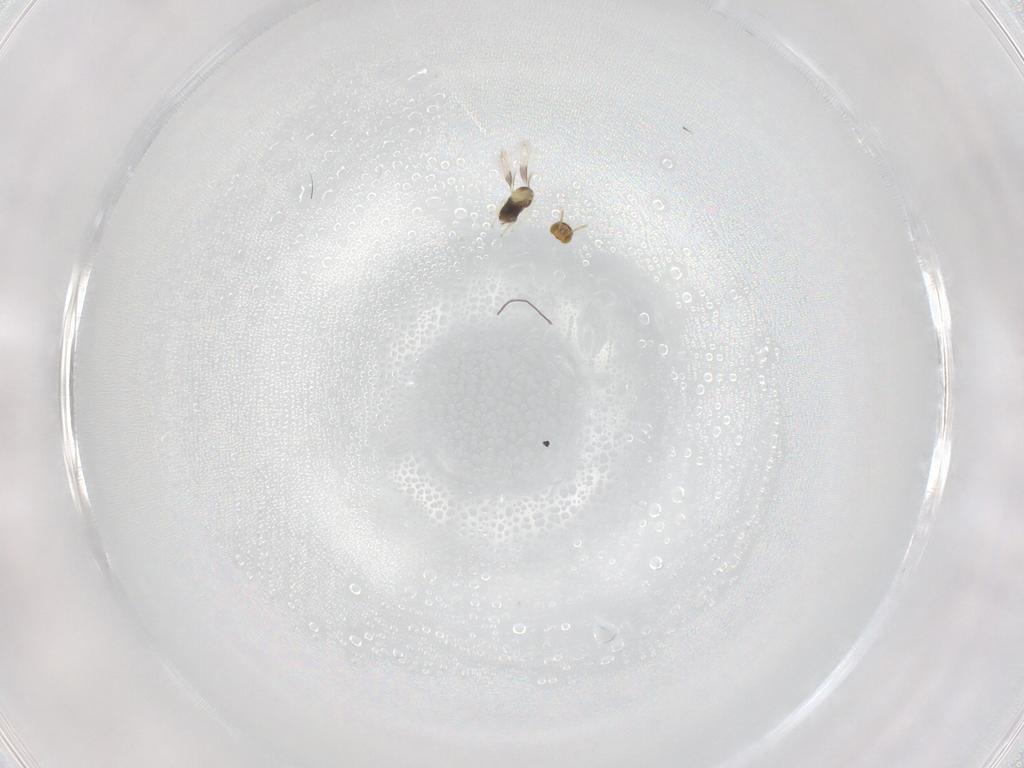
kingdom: Animalia
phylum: Arthropoda
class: Insecta
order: Hymenoptera
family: Aphelinidae
